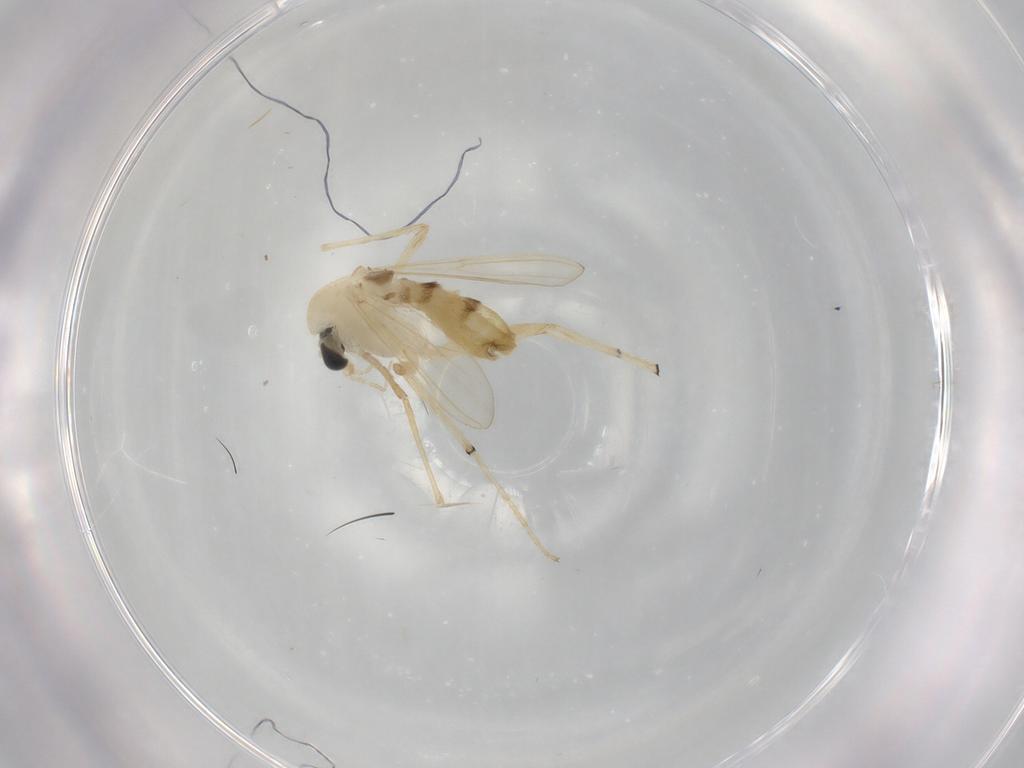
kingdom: Animalia
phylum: Arthropoda
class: Insecta
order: Diptera
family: Chironomidae
